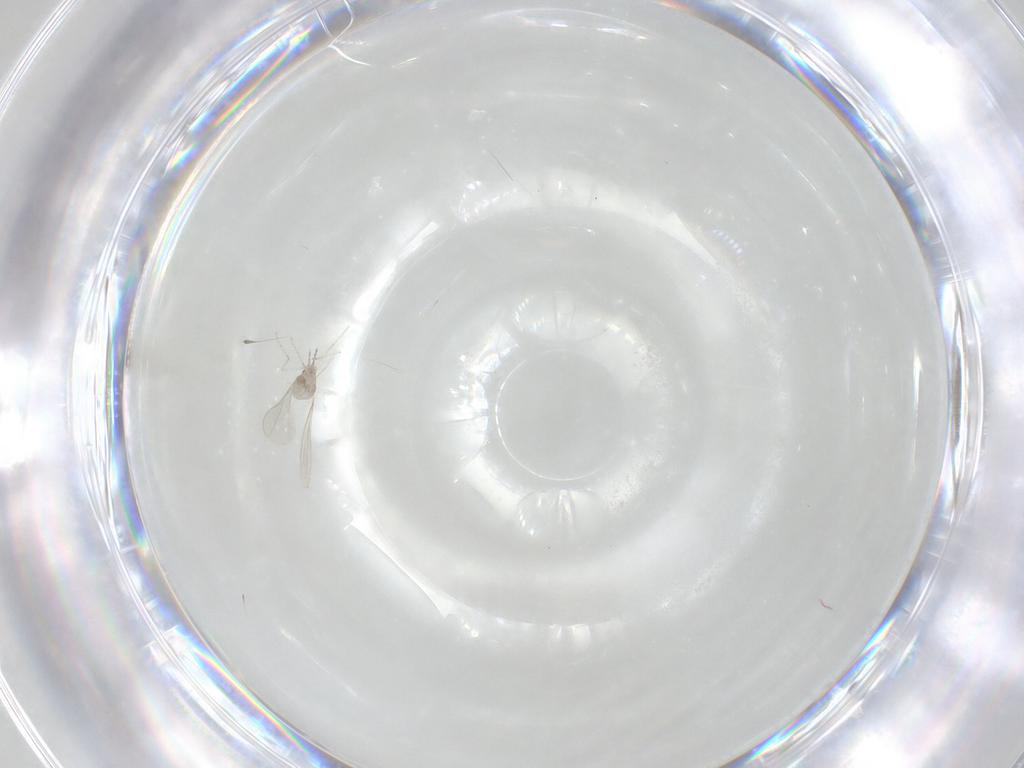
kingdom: Animalia
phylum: Arthropoda
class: Insecta
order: Diptera
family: Cecidomyiidae
